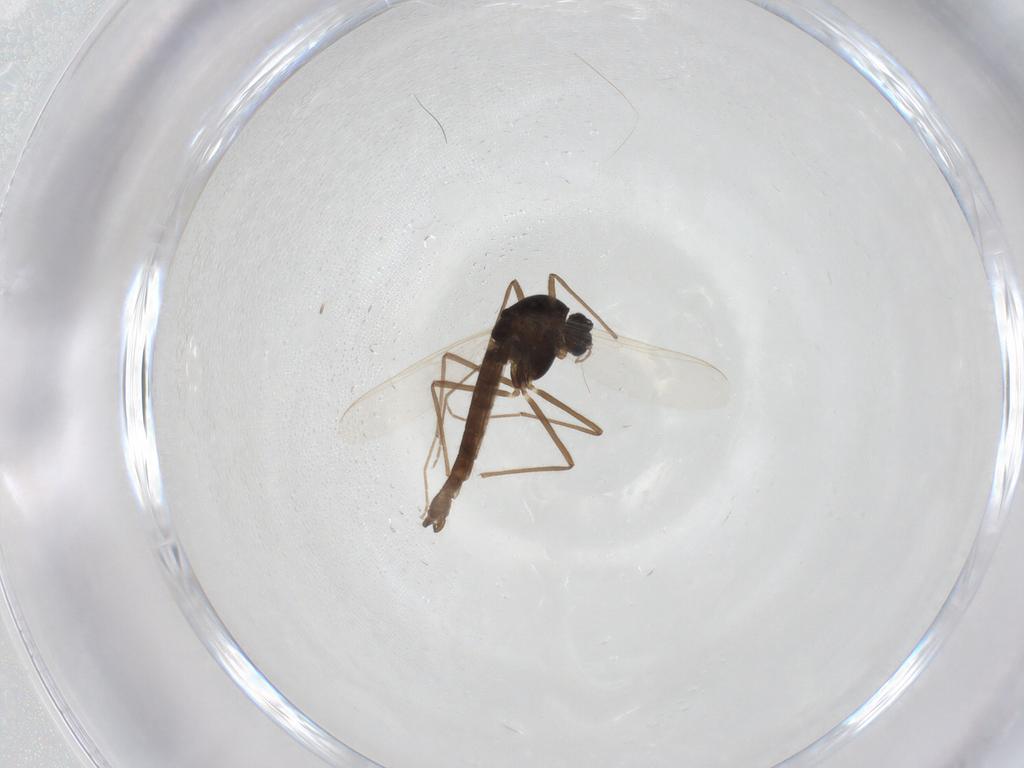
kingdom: Animalia
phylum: Arthropoda
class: Insecta
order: Diptera
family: Chironomidae
